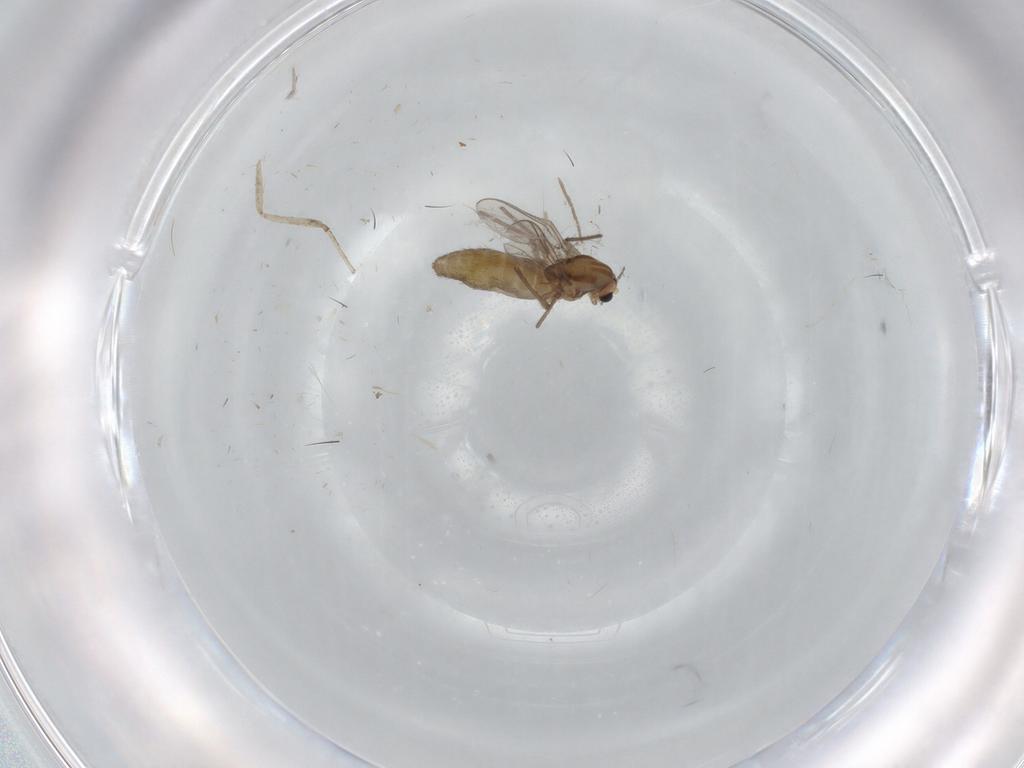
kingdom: Animalia
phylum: Arthropoda
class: Insecta
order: Diptera
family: Chironomidae
